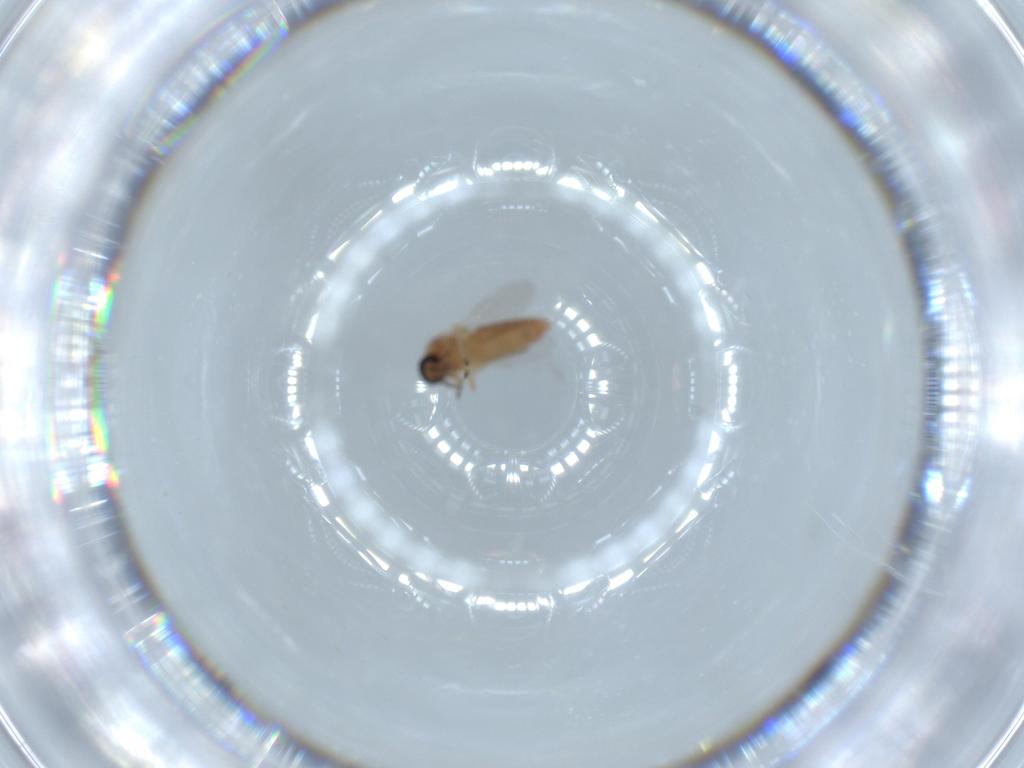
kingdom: Animalia
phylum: Arthropoda
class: Insecta
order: Diptera
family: Ceratopogonidae
